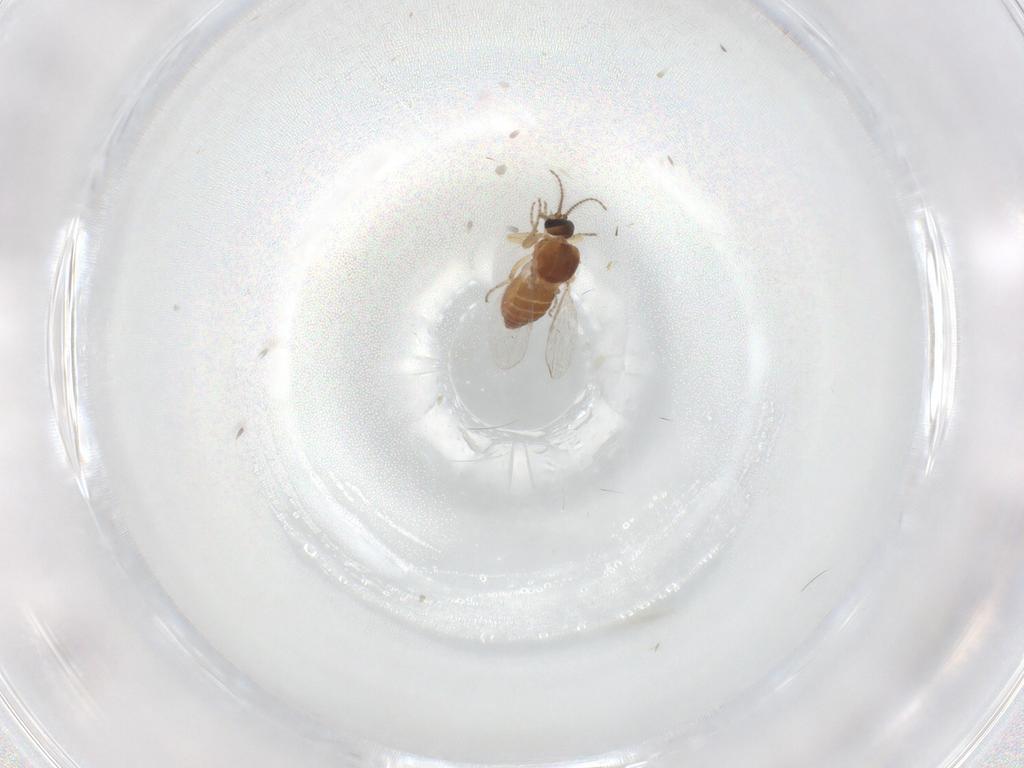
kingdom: Animalia
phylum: Arthropoda
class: Insecta
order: Diptera
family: Ceratopogonidae
